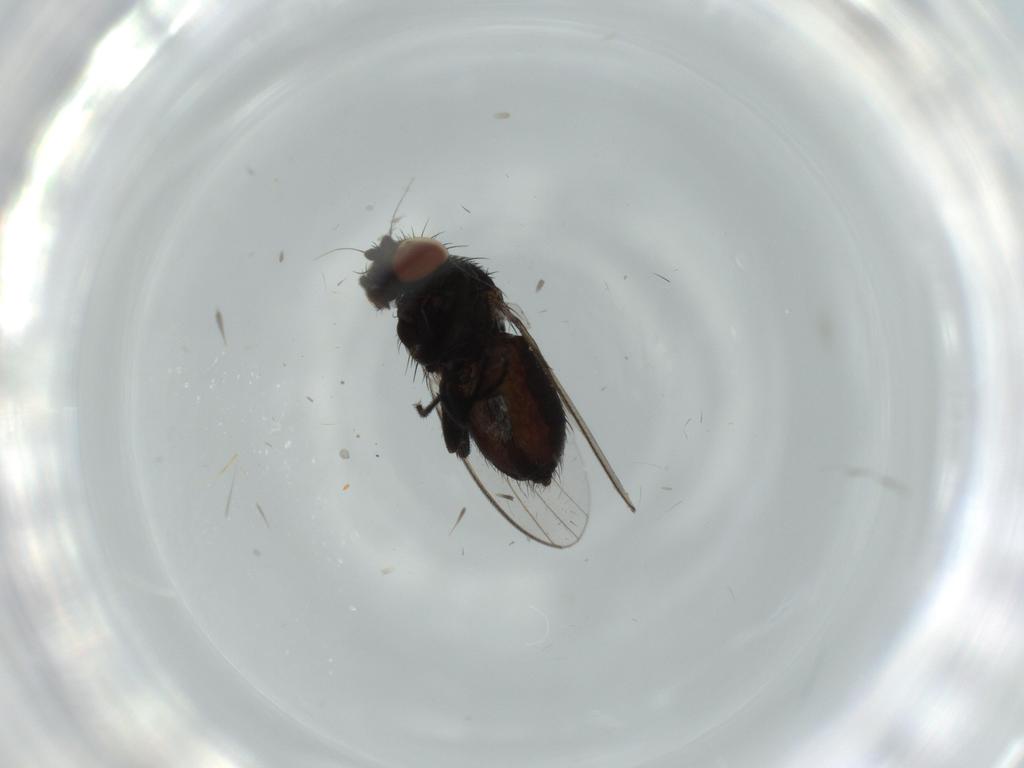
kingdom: Animalia
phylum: Arthropoda
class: Insecta
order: Diptera
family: Milichiidae
